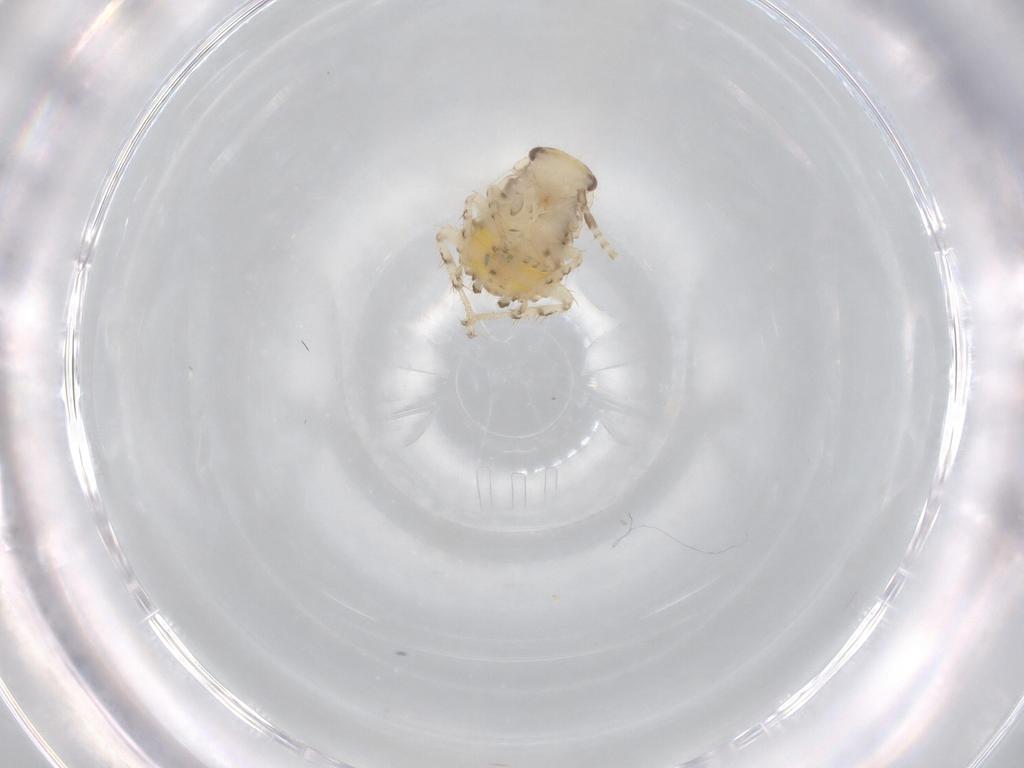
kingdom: Animalia
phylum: Arthropoda
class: Insecta
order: Blattodea
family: Ectobiidae
